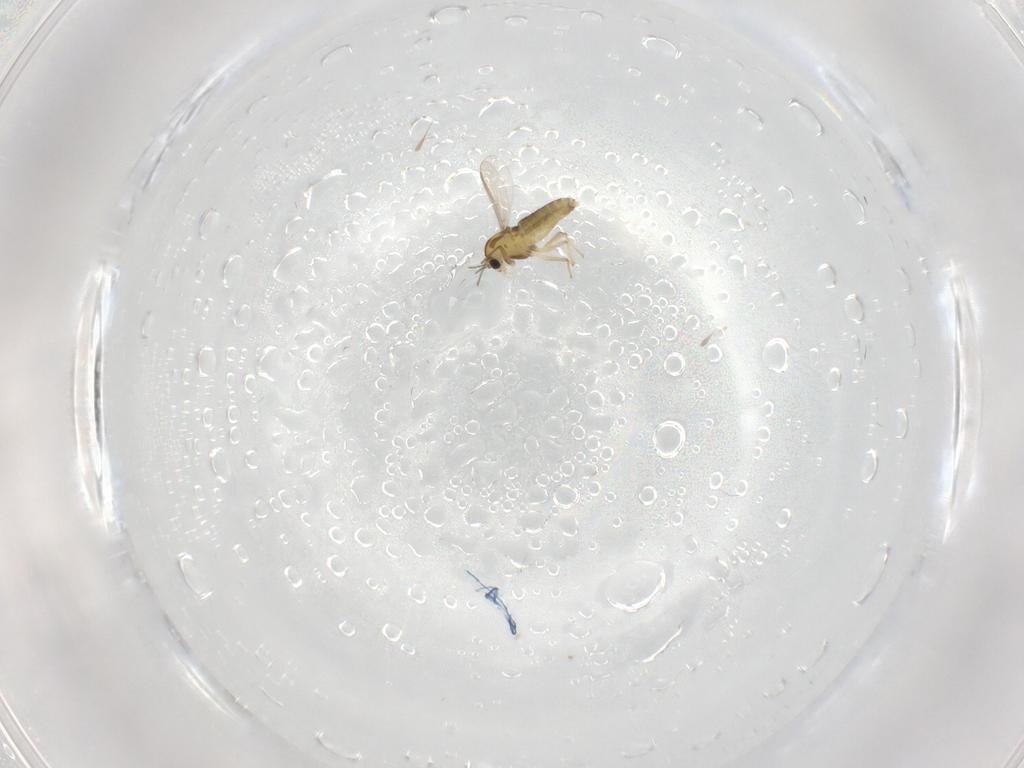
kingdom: Animalia
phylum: Arthropoda
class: Insecta
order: Diptera
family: Chironomidae
